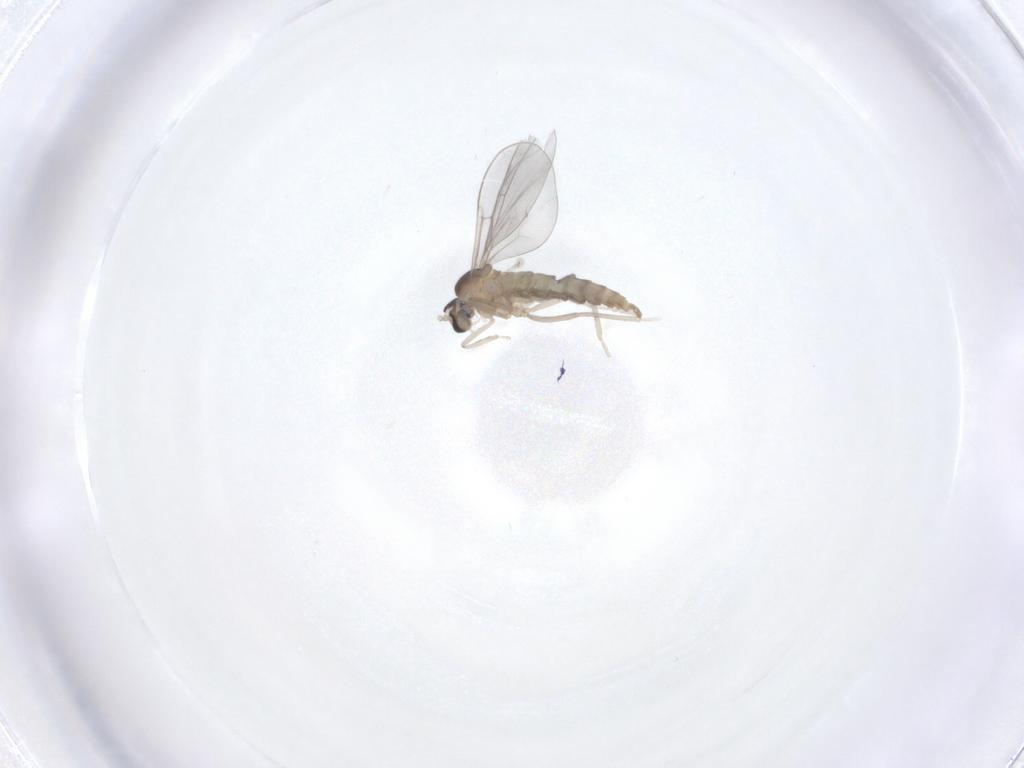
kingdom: Animalia
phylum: Arthropoda
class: Insecta
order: Diptera
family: Cecidomyiidae
